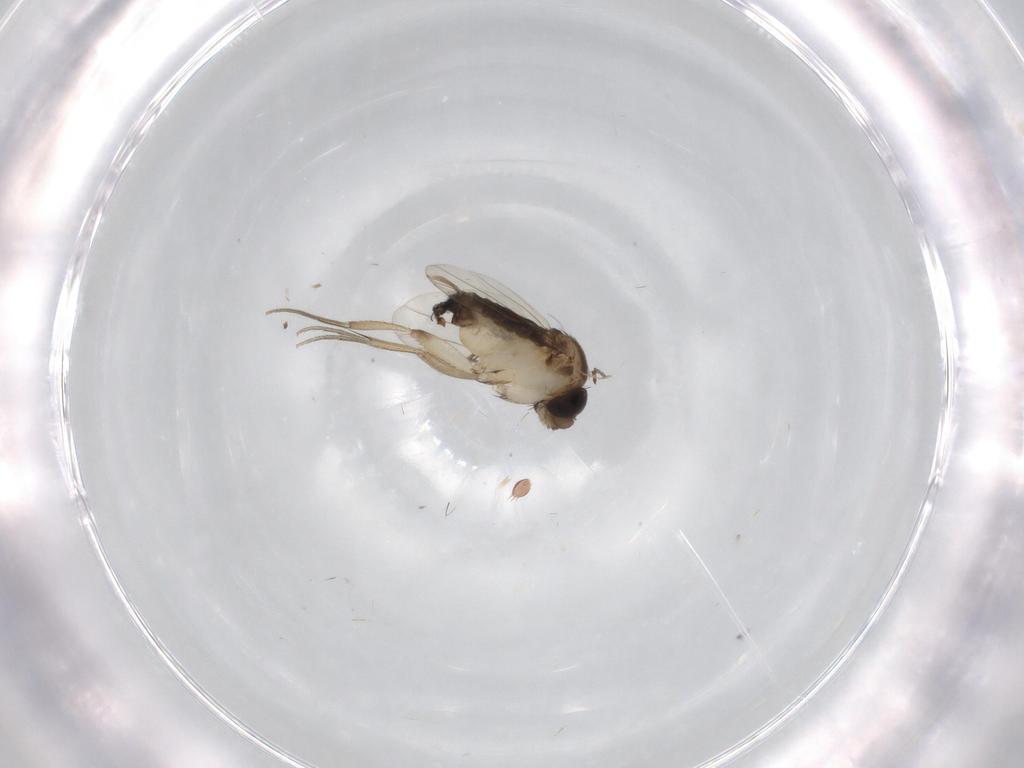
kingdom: Animalia
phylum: Arthropoda
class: Insecta
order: Diptera
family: Phoridae
